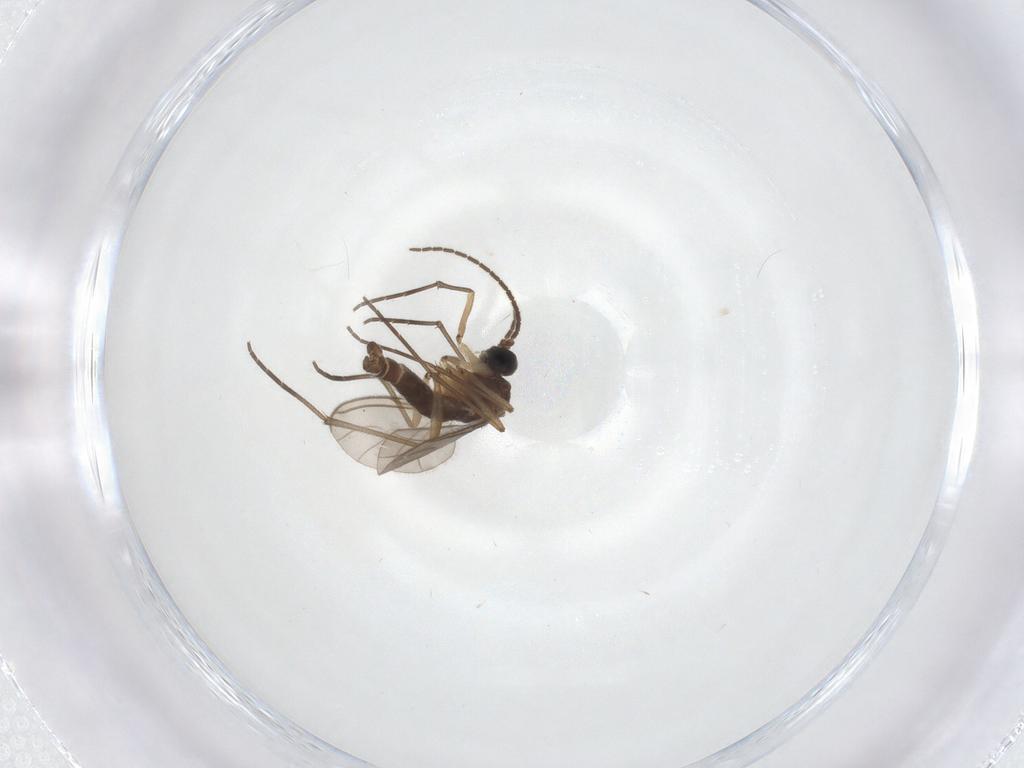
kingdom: Animalia
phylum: Arthropoda
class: Insecta
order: Diptera
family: Sciaridae
